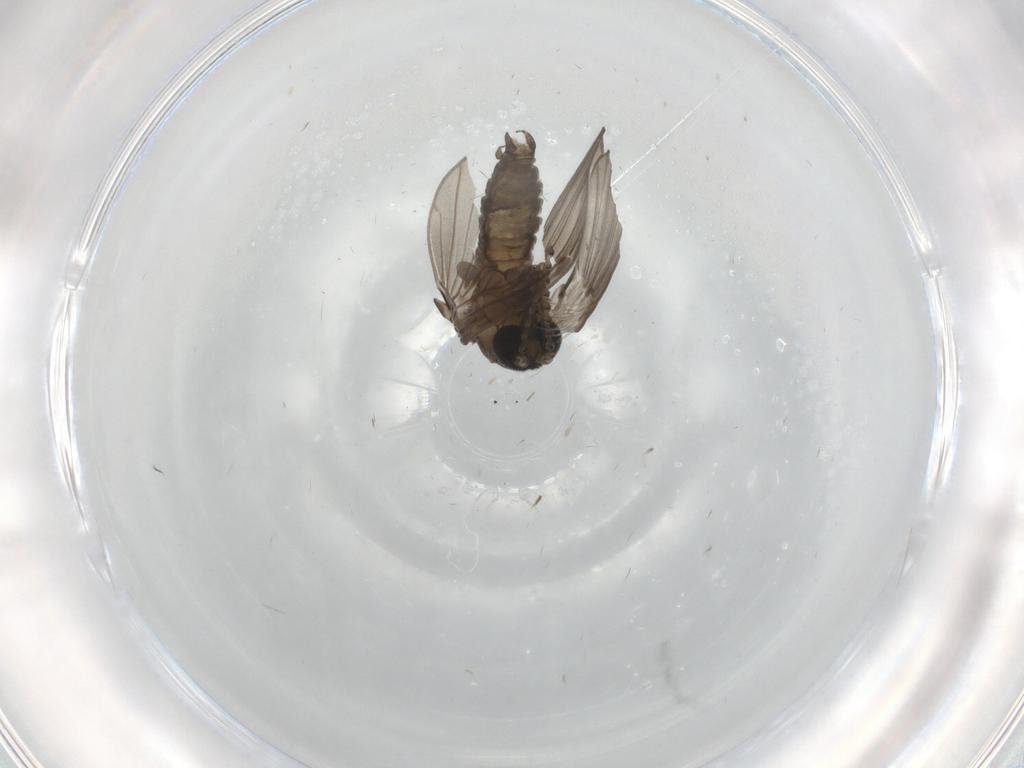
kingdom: Animalia
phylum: Arthropoda
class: Insecta
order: Diptera
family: Psychodidae
